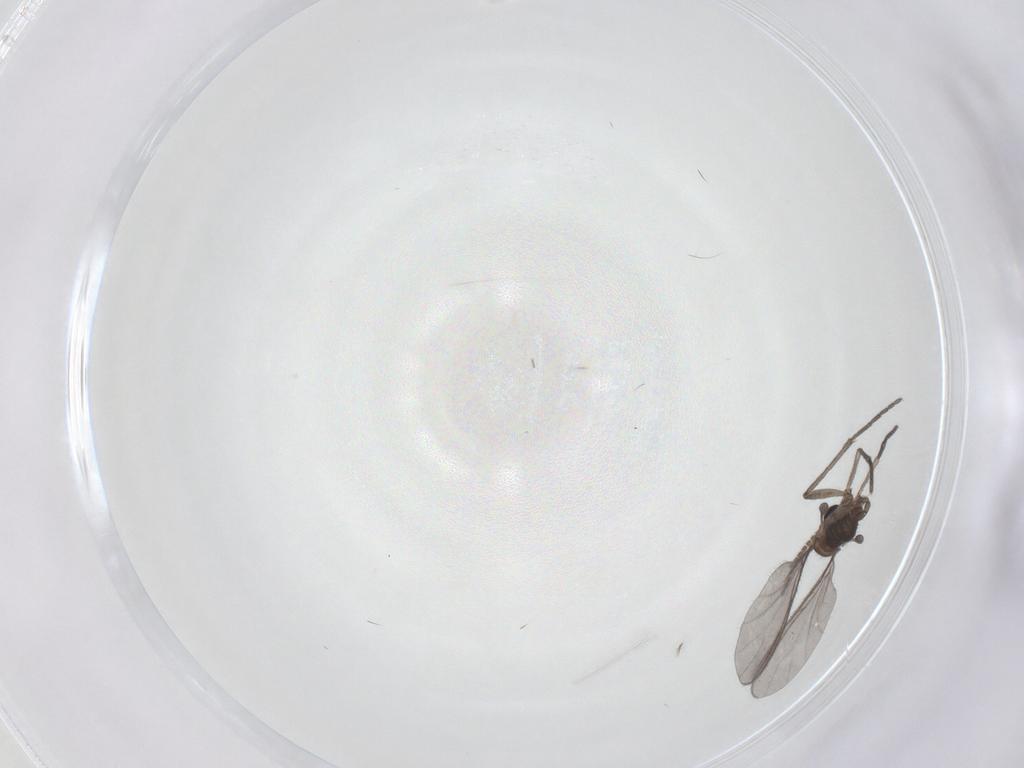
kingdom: Animalia
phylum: Arthropoda
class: Insecta
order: Diptera
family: Sciaridae
